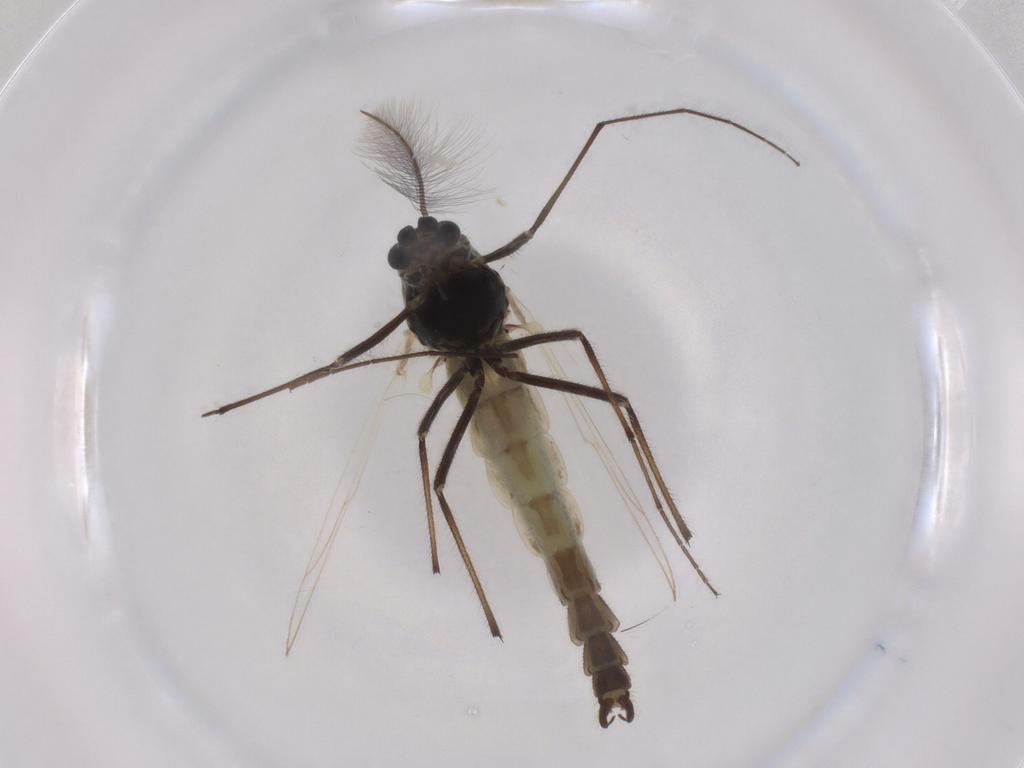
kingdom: Animalia
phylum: Arthropoda
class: Insecta
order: Diptera
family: Chironomidae
